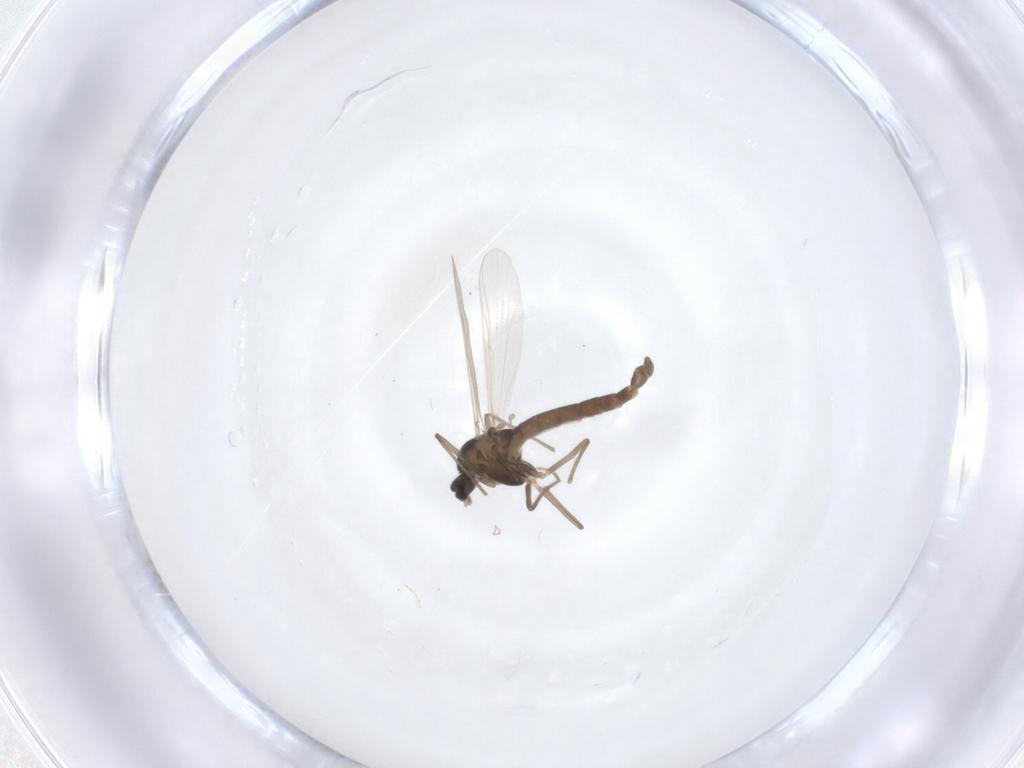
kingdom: Animalia
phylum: Arthropoda
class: Insecta
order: Diptera
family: Chironomidae
